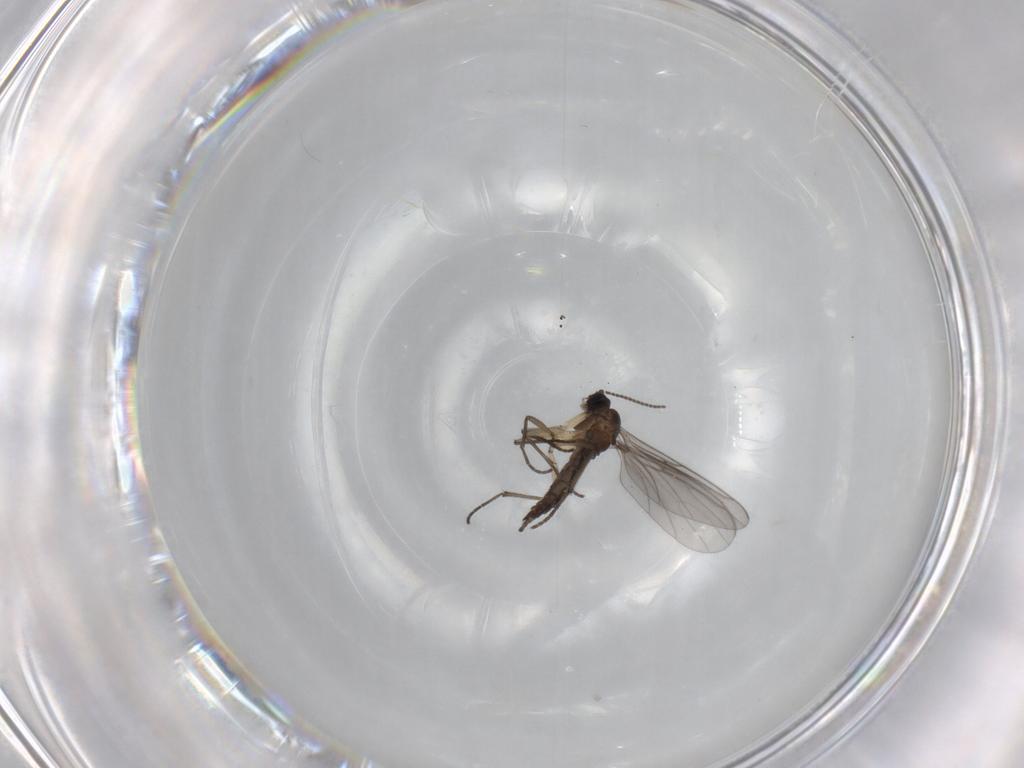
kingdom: Animalia
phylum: Arthropoda
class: Insecta
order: Diptera
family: Sciaridae
